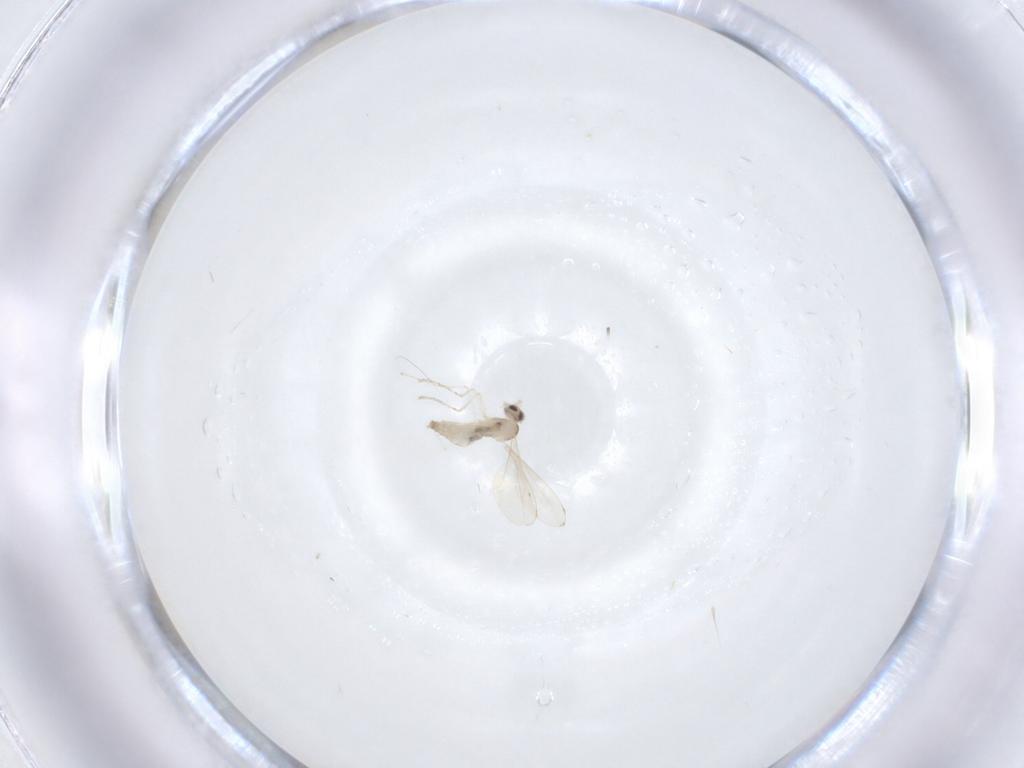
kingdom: Animalia
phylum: Arthropoda
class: Insecta
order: Diptera
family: Cecidomyiidae
